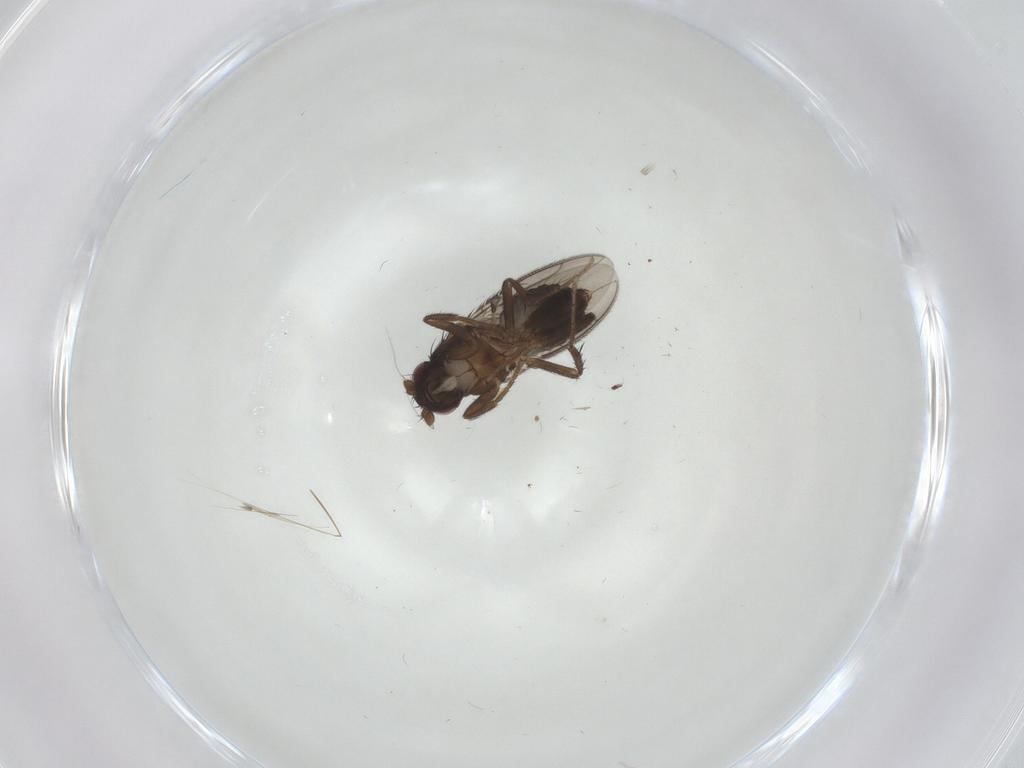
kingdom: Animalia
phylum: Arthropoda
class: Insecta
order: Diptera
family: Sphaeroceridae
